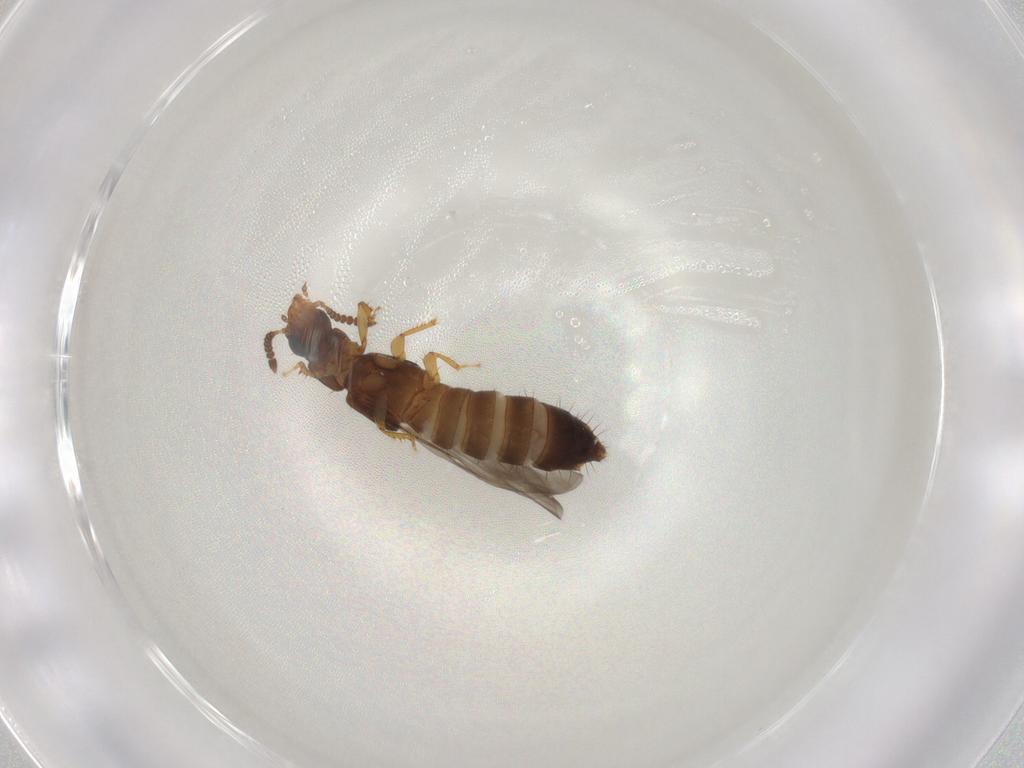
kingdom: Animalia
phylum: Arthropoda
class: Insecta
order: Coleoptera
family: Staphylinidae
